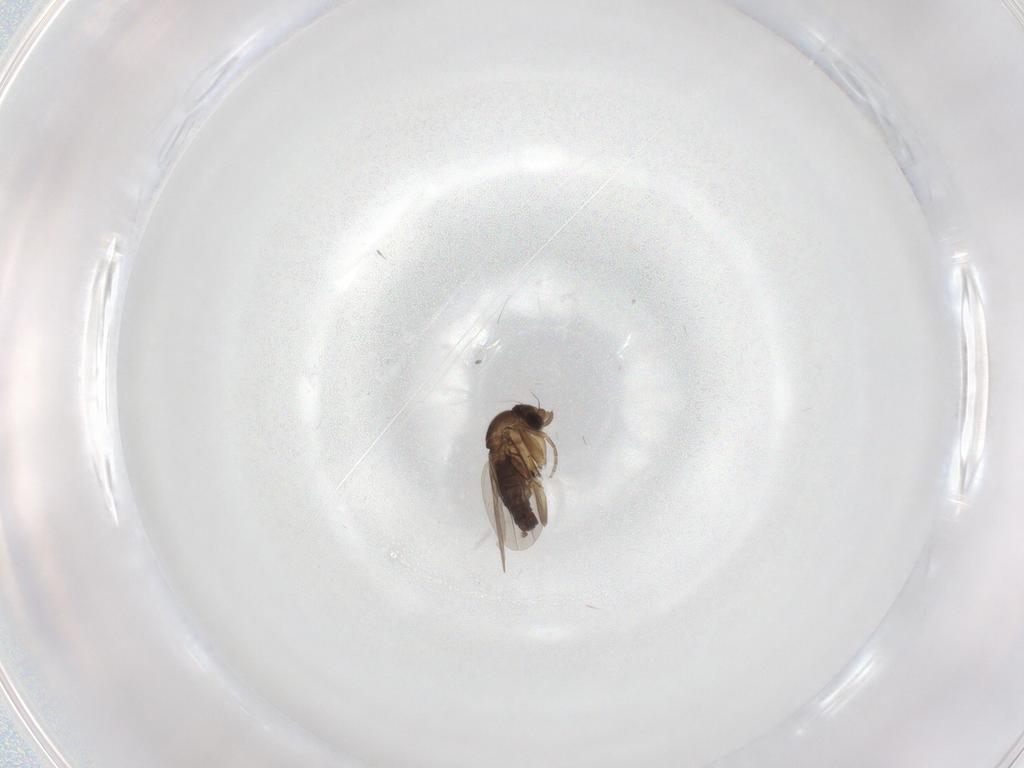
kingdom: Animalia
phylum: Arthropoda
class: Insecta
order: Diptera
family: Phoridae
